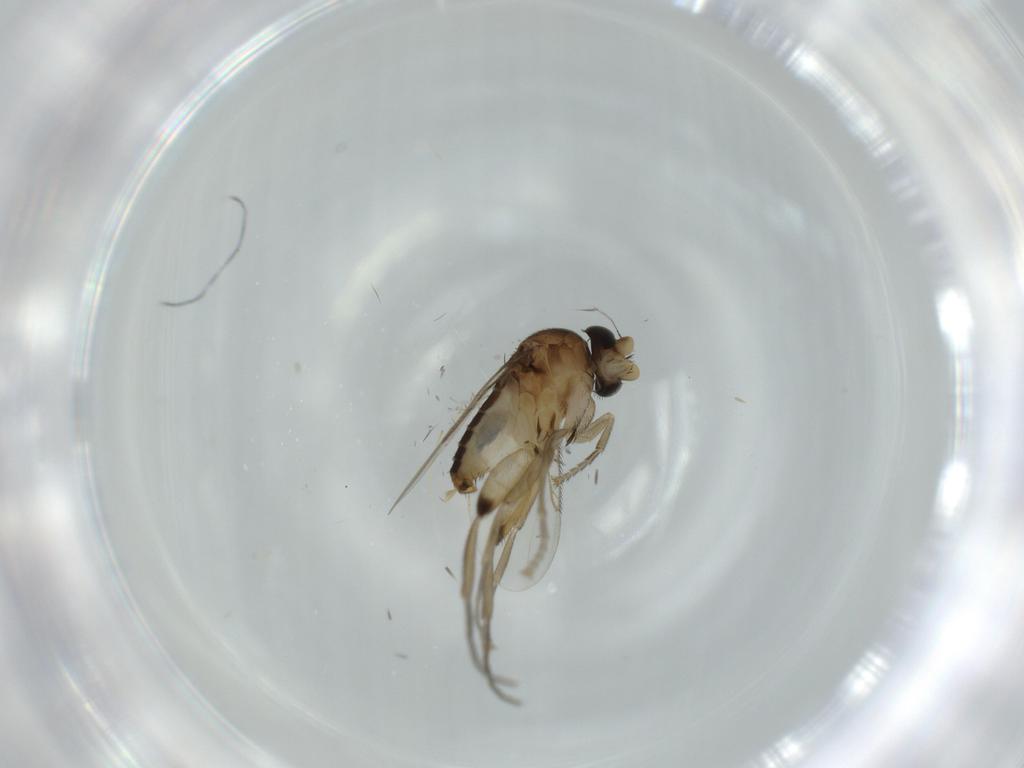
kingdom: Animalia
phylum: Arthropoda
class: Insecta
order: Diptera
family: Phoridae
